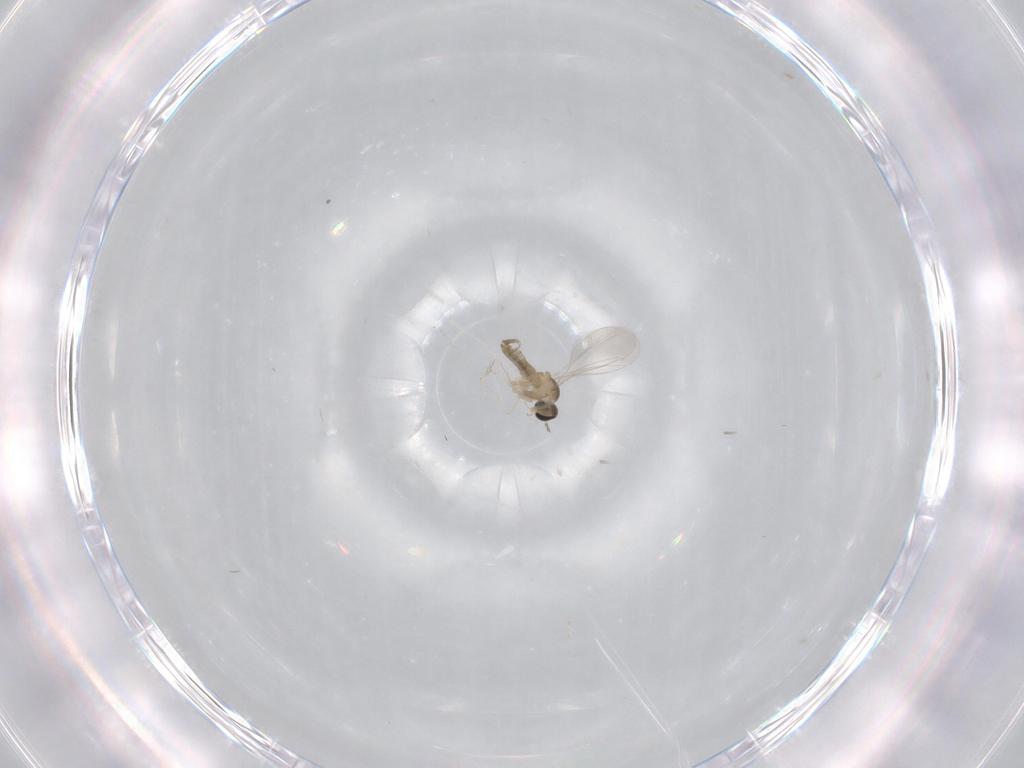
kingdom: Animalia
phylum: Arthropoda
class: Insecta
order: Diptera
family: Cecidomyiidae
